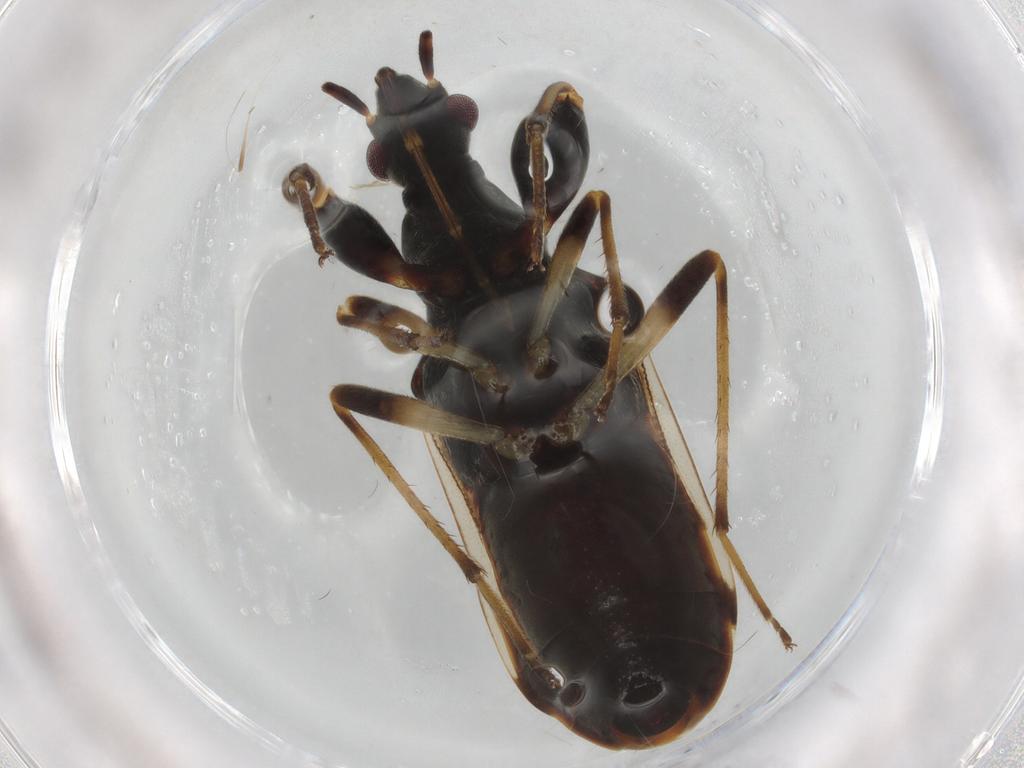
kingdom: Animalia
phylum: Arthropoda
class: Insecta
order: Hemiptera
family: Rhyparochromidae
